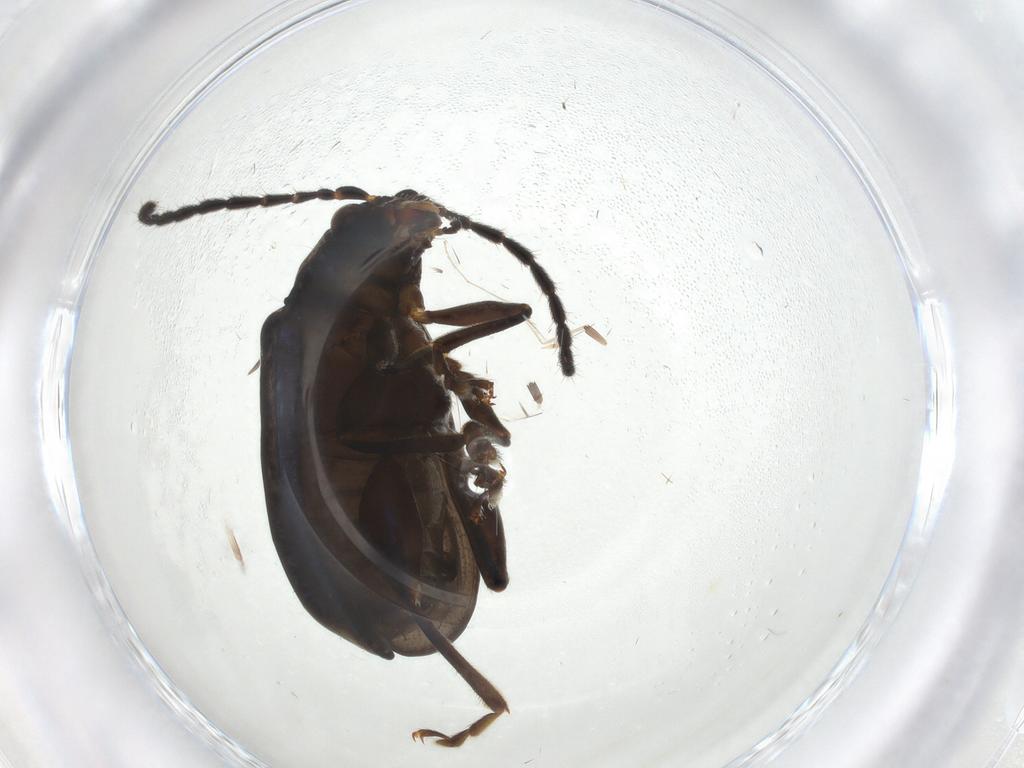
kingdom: Animalia
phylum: Arthropoda
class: Insecta
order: Coleoptera
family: Chrysomelidae
